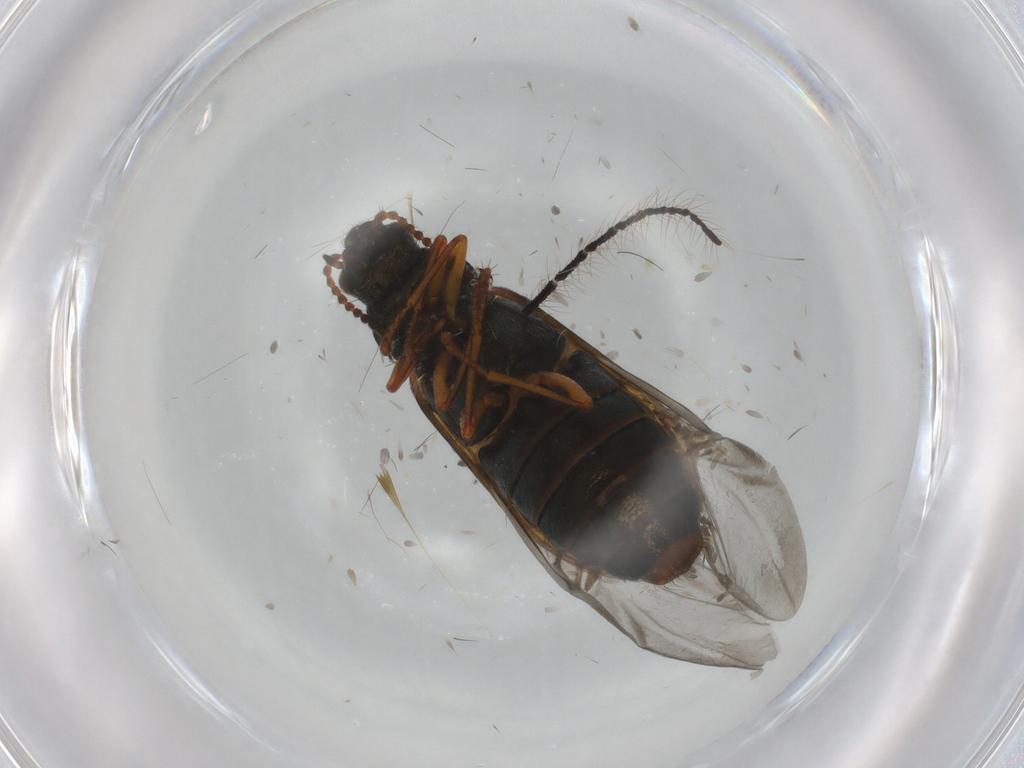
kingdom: Animalia
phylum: Arthropoda
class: Insecta
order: Coleoptera
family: Melyridae
